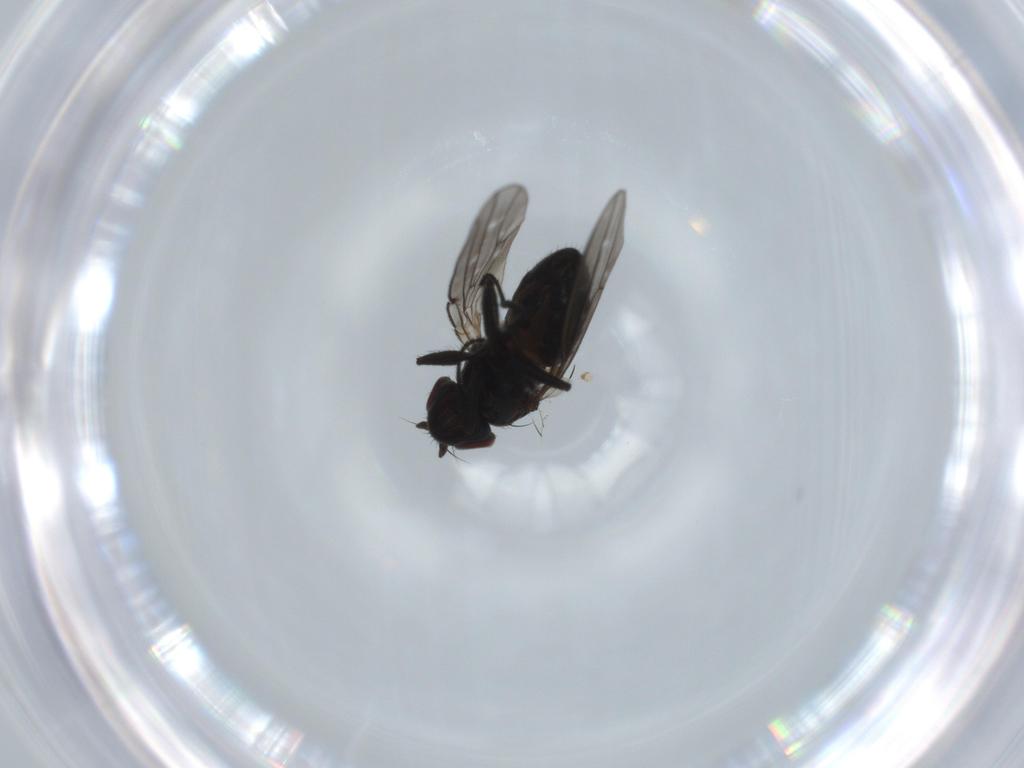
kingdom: Animalia
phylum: Arthropoda
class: Insecta
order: Diptera
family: Ephydridae
